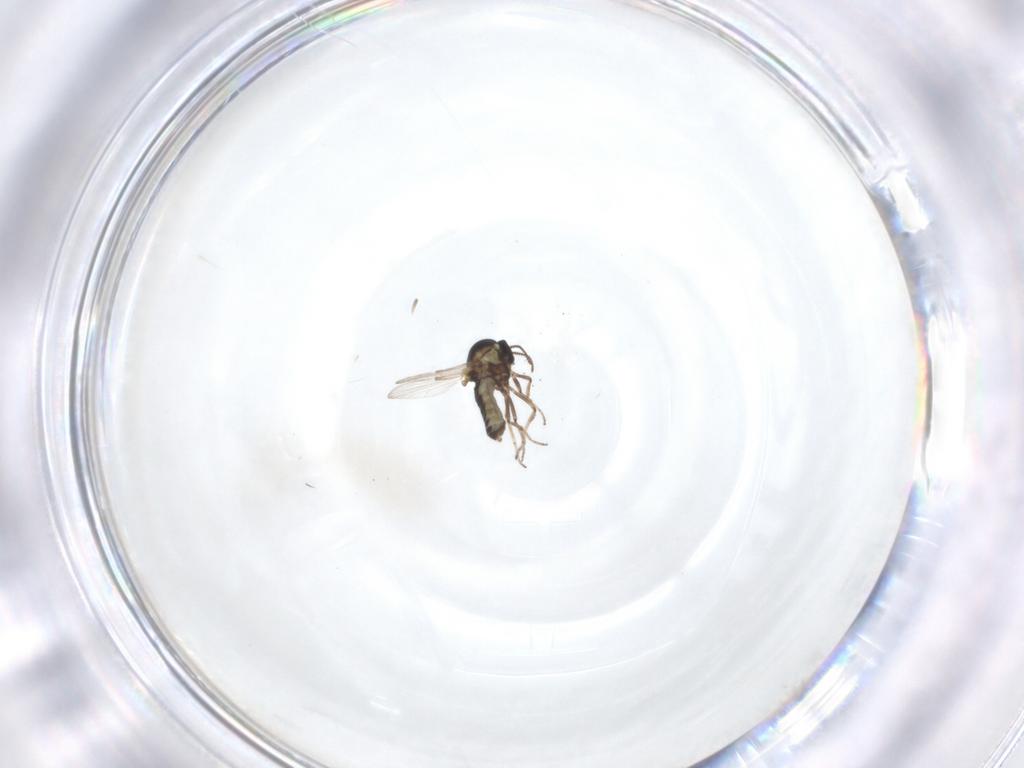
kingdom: Animalia
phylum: Arthropoda
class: Insecta
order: Diptera
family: Ceratopogonidae
